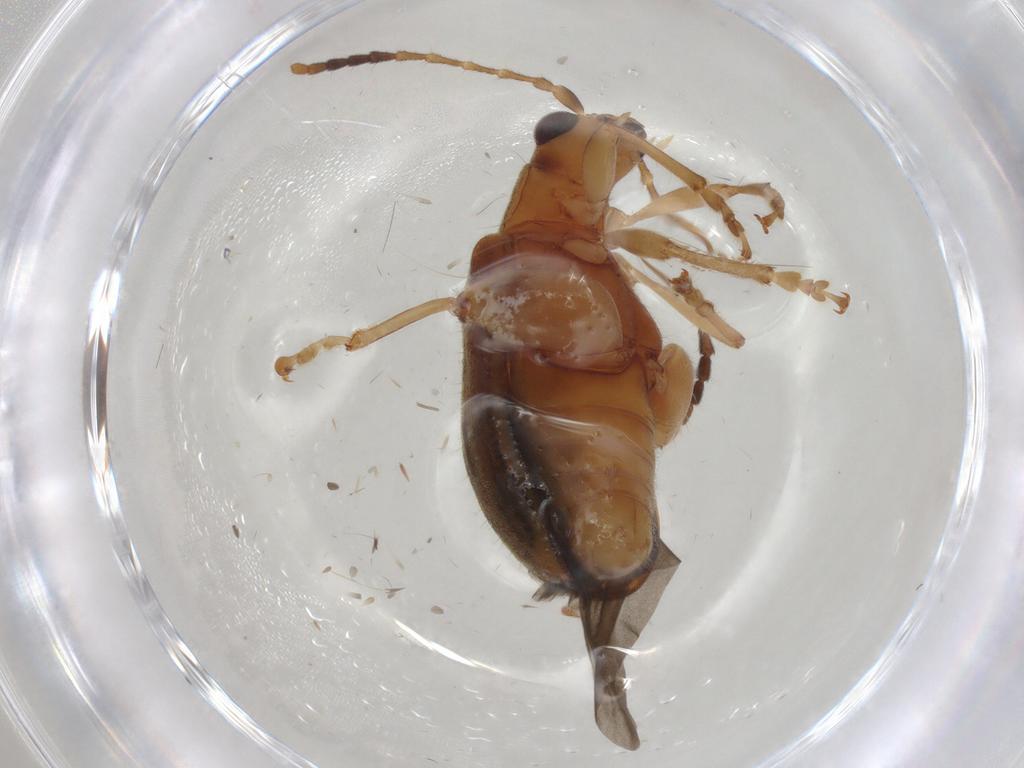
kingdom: Animalia
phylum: Arthropoda
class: Insecta
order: Coleoptera
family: Chrysomelidae
